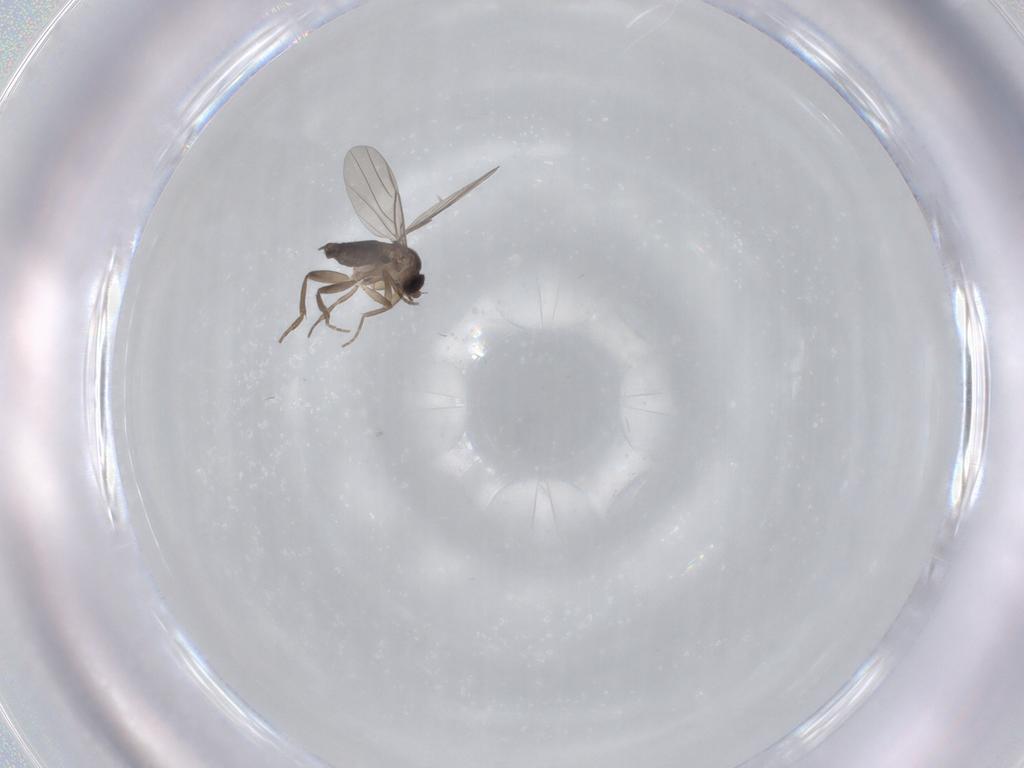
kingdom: Animalia
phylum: Arthropoda
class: Insecta
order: Diptera
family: Phoridae
